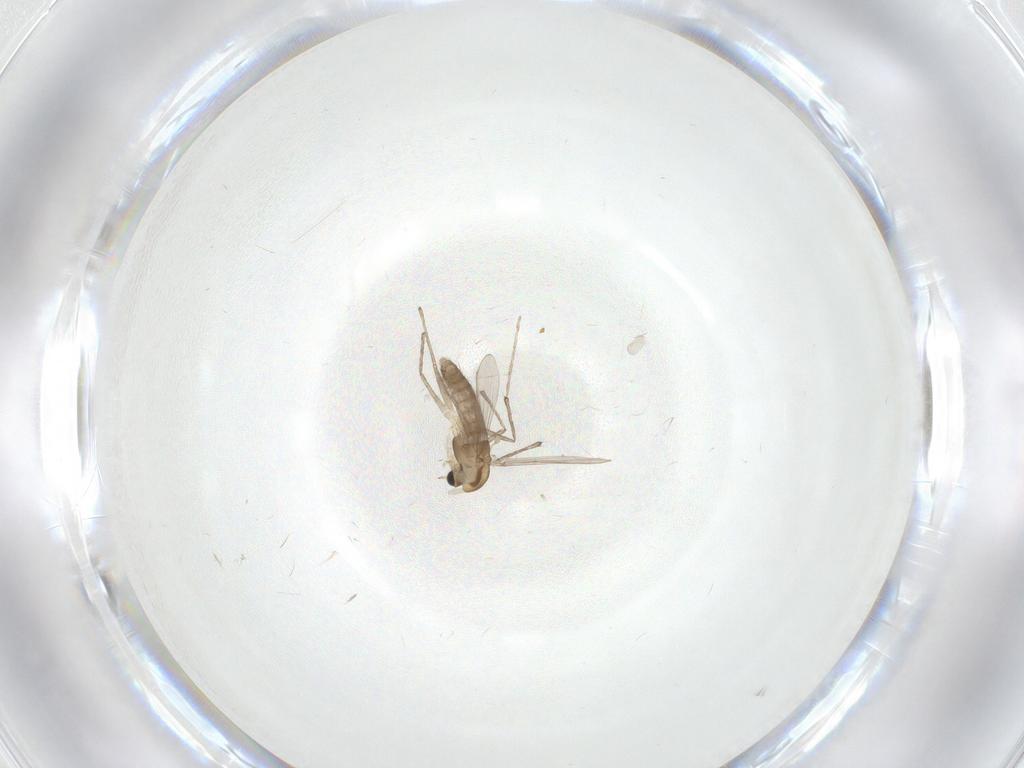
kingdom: Animalia
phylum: Arthropoda
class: Insecta
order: Diptera
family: Chironomidae
